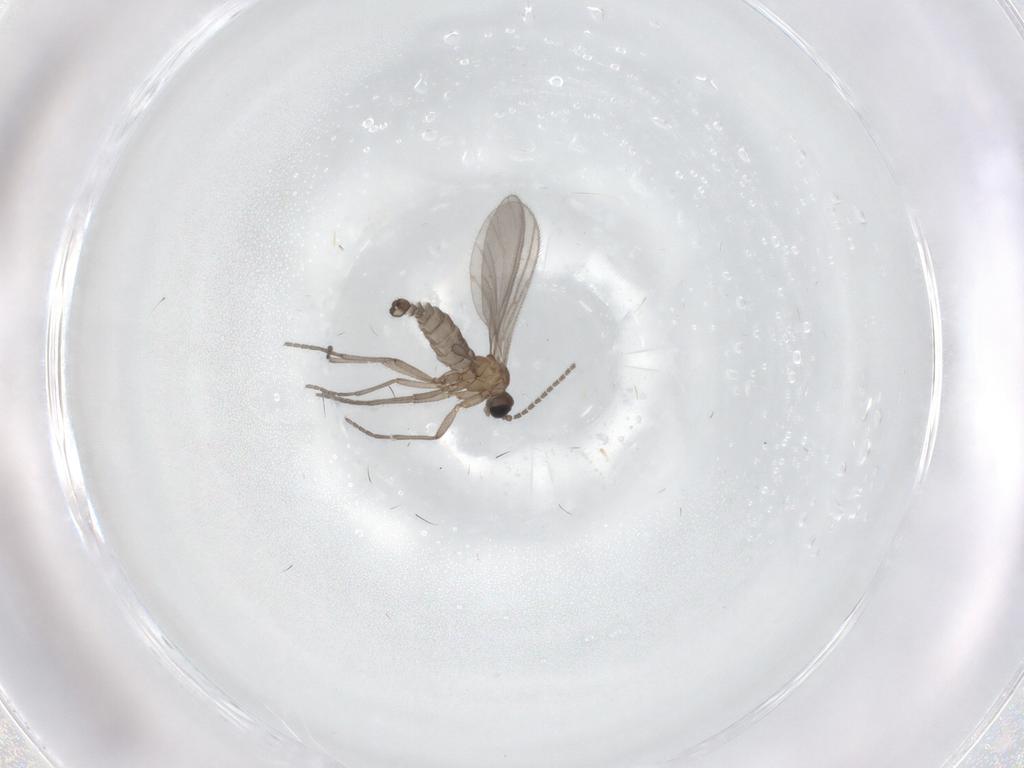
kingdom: Animalia
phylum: Arthropoda
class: Insecta
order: Diptera
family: Sciaridae
